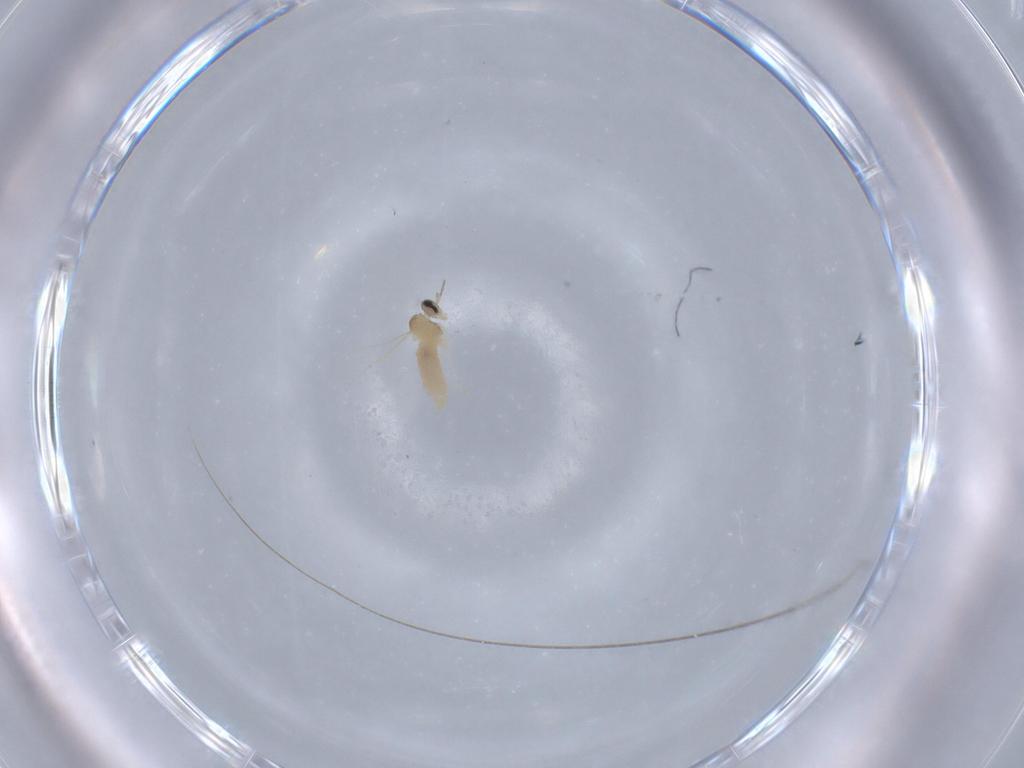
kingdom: Animalia
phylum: Arthropoda
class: Insecta
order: Diptera
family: Cecidomyiidae
